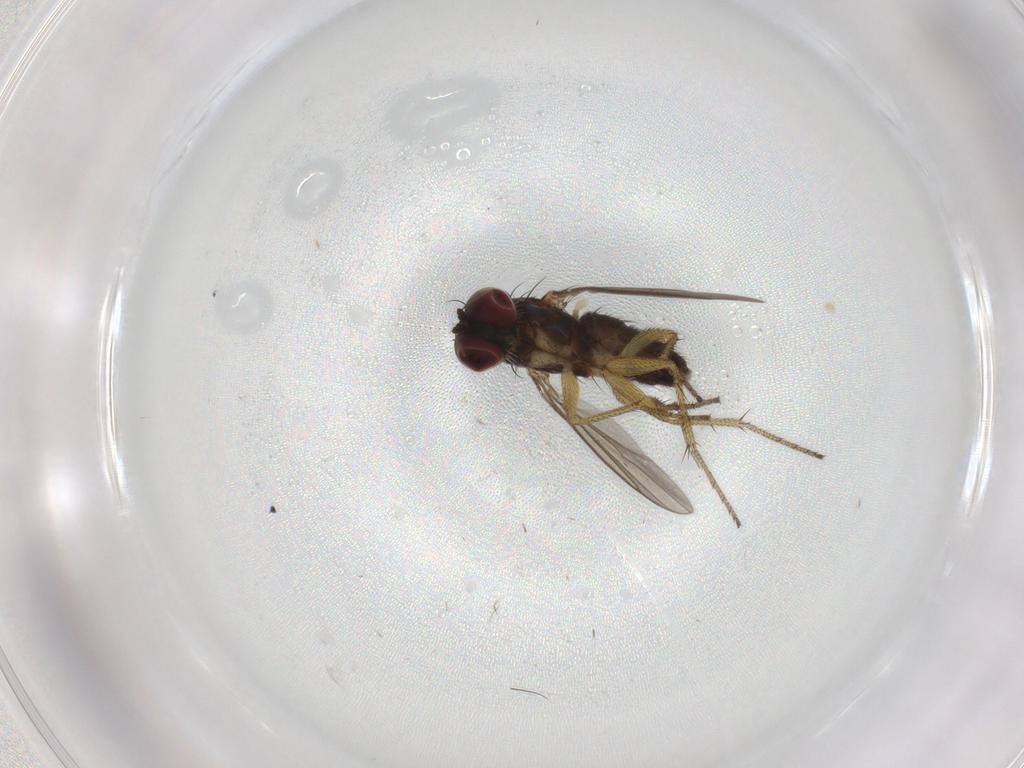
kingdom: Animalia
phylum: Arthropoda
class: Insecta
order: Diptera
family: Chironomidae
